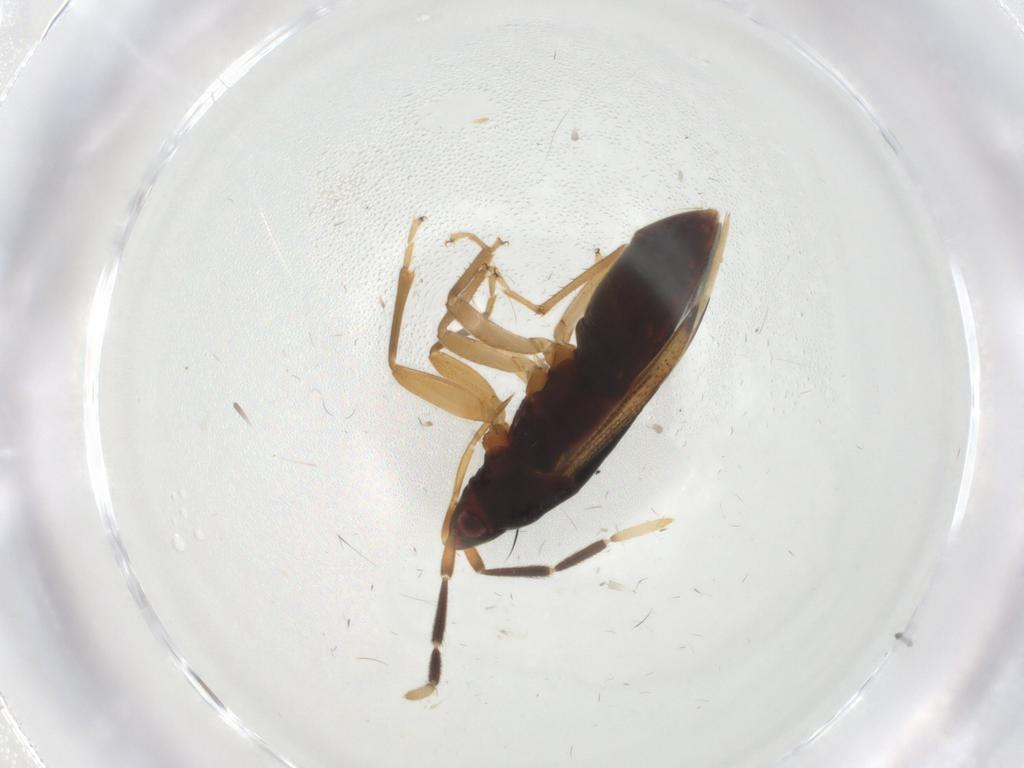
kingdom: Animalia
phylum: Arthropoda
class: Insecta
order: Hemiptera
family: Rhyparochromidae
